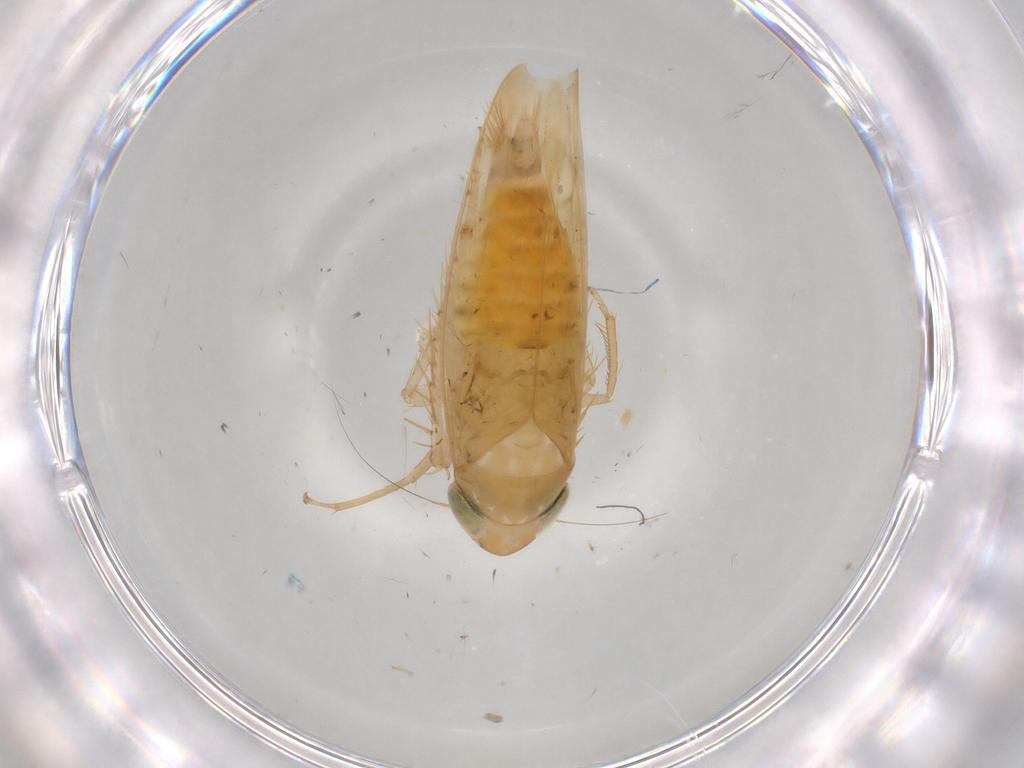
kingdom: Animalia
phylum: Arthropoda
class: Insecta
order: Hemiptera
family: Cicadellidae
